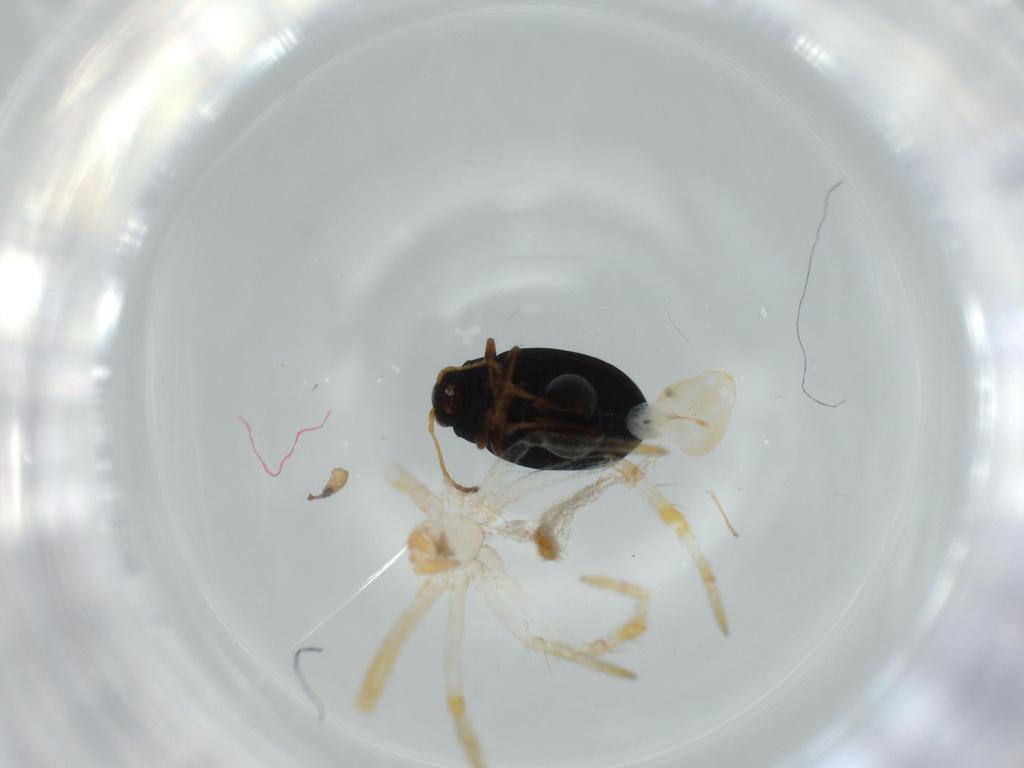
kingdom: Animalia
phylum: Arthropoda
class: Insecta
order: Coleoptera
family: Chrysomelidae
